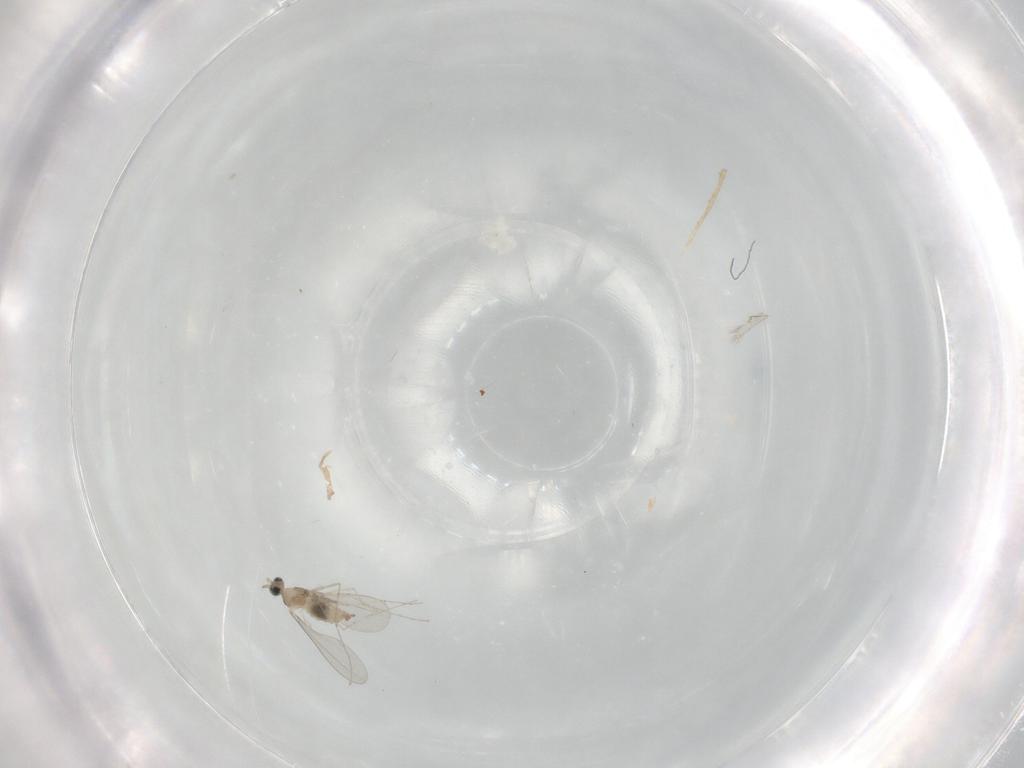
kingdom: Animalia
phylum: Arthropoda
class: Insecta
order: Diptera
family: Cecidomyiidae
